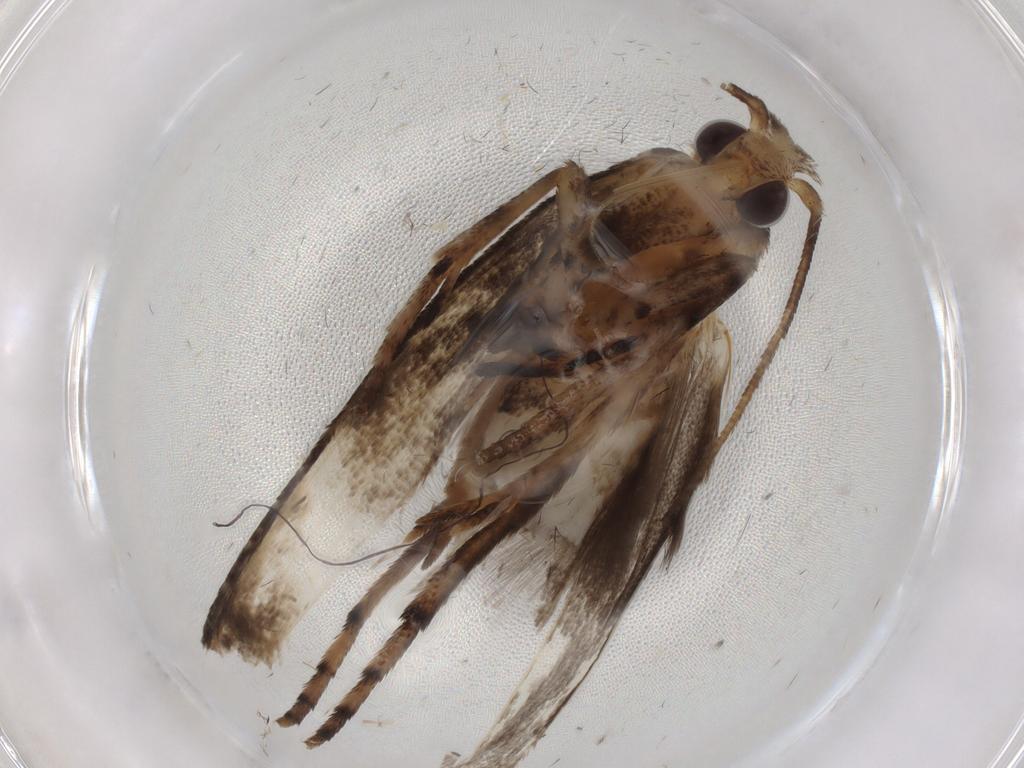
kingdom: Animalia
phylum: Arthropoda
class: Insecta
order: Lepidoptera
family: Yponomeutidae
